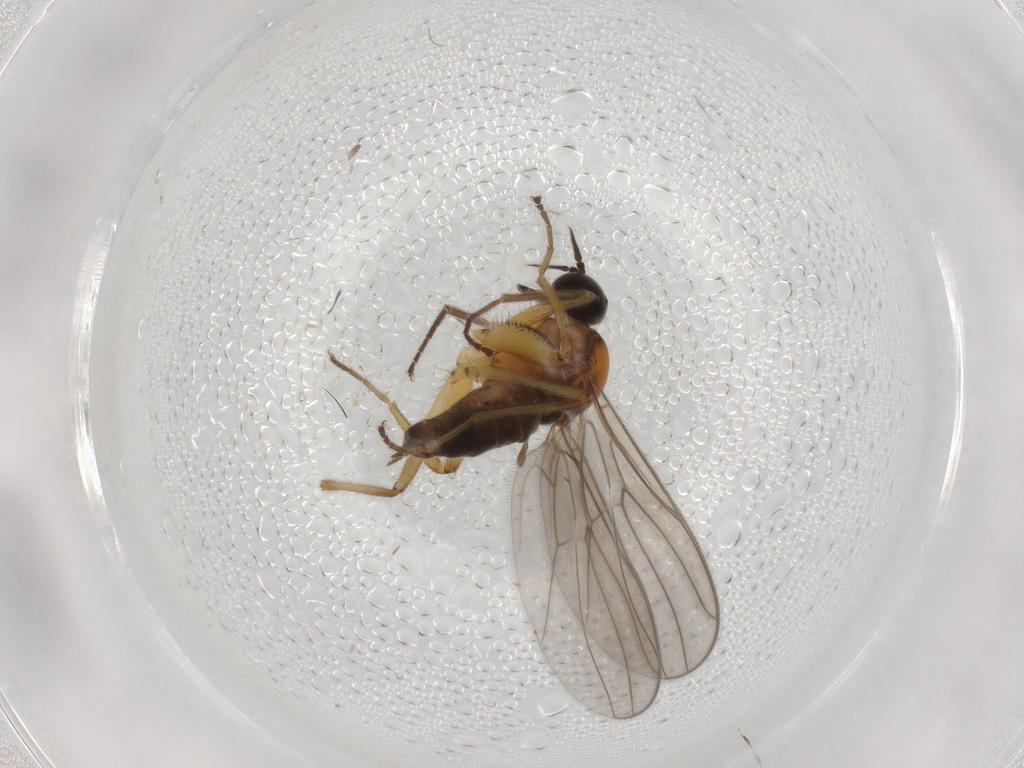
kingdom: Animalia
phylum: Arthropoda
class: Insecta
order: Diptera
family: Hybotidae
